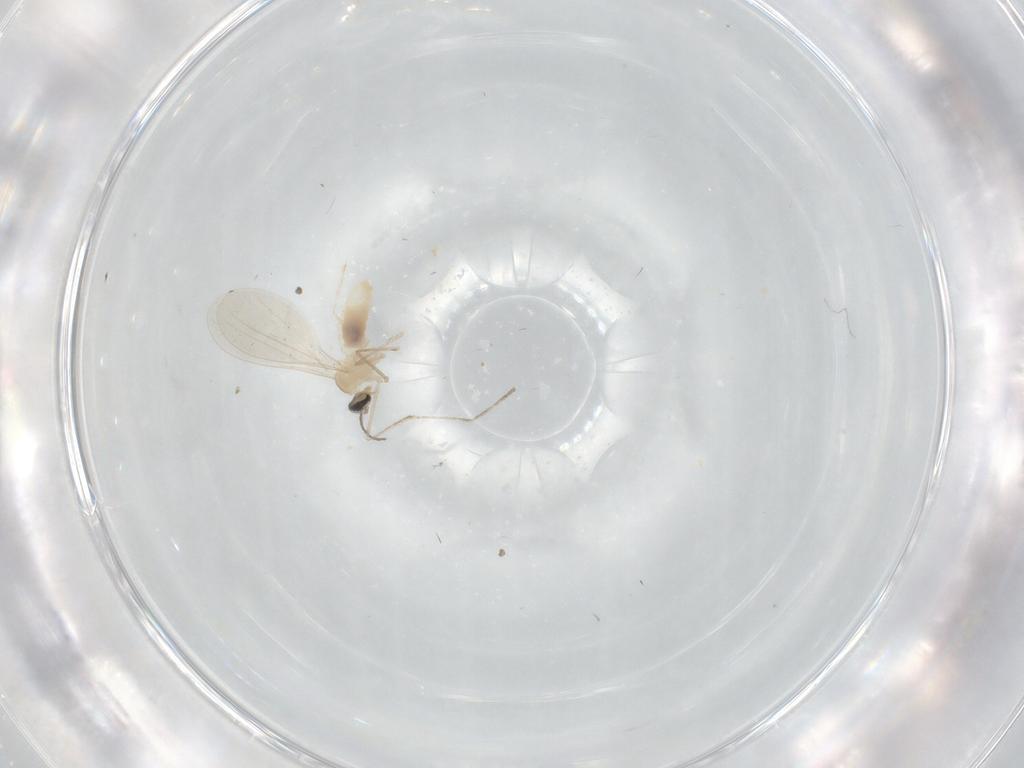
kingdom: Animalia
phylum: Arthropoda
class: Insecta
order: Diptera
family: Cecidomyiidae
